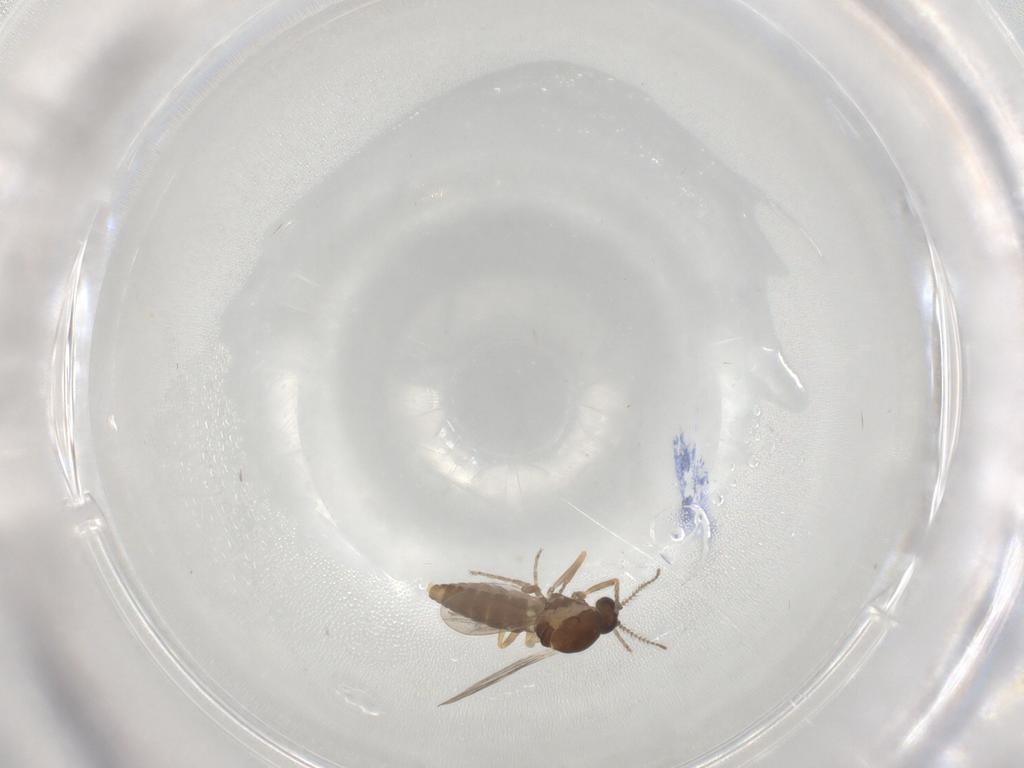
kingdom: Animalia
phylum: Arthropoda
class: Insecta
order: Diptera
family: Ceratopogonidae
